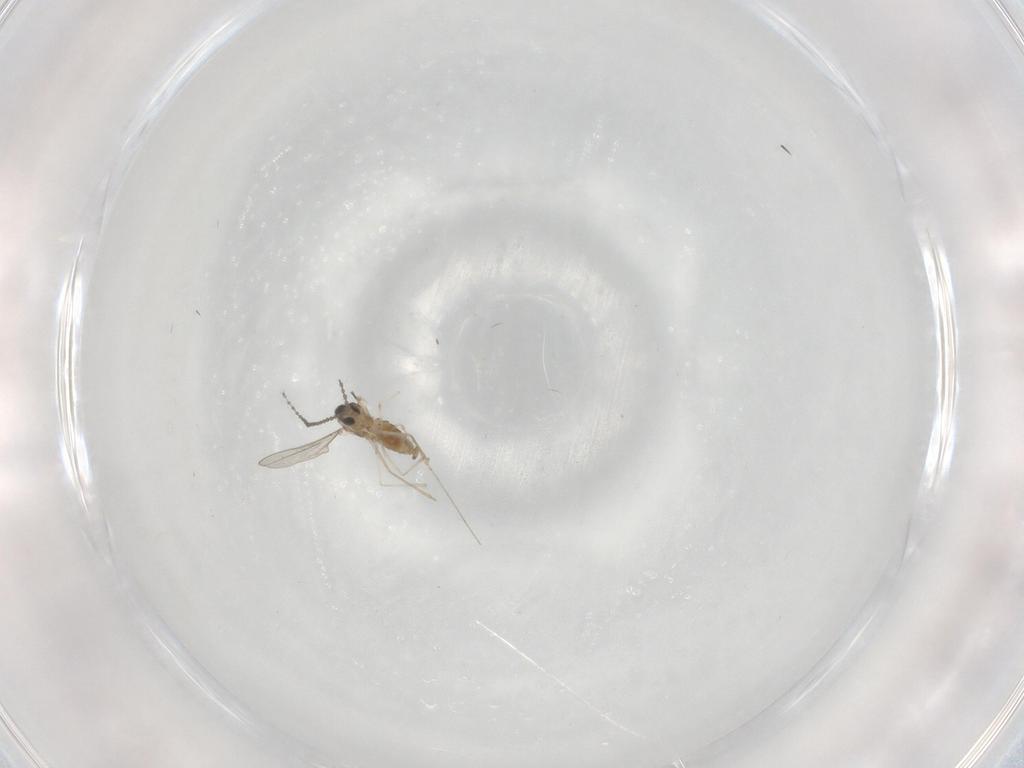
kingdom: Animalia
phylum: Arthropoda
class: Insecta
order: Diptera
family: Cecidomyiidae
